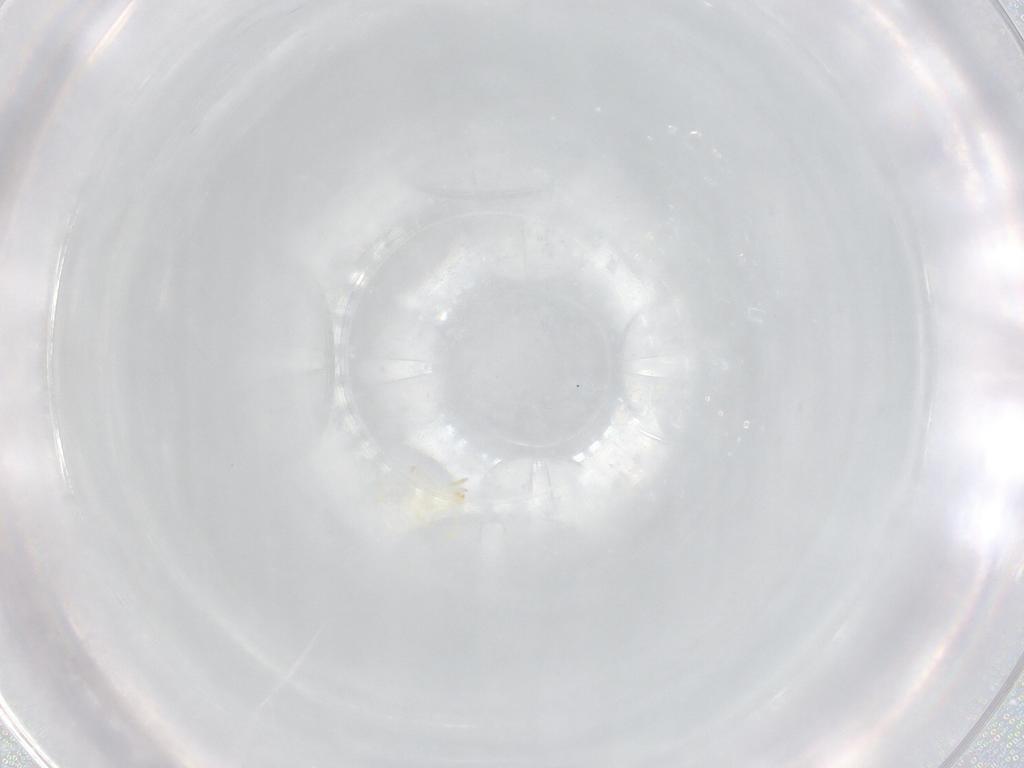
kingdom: Animalia
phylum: Arthropoda
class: Arachnida
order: Trombidiformes
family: Erythraeidae
